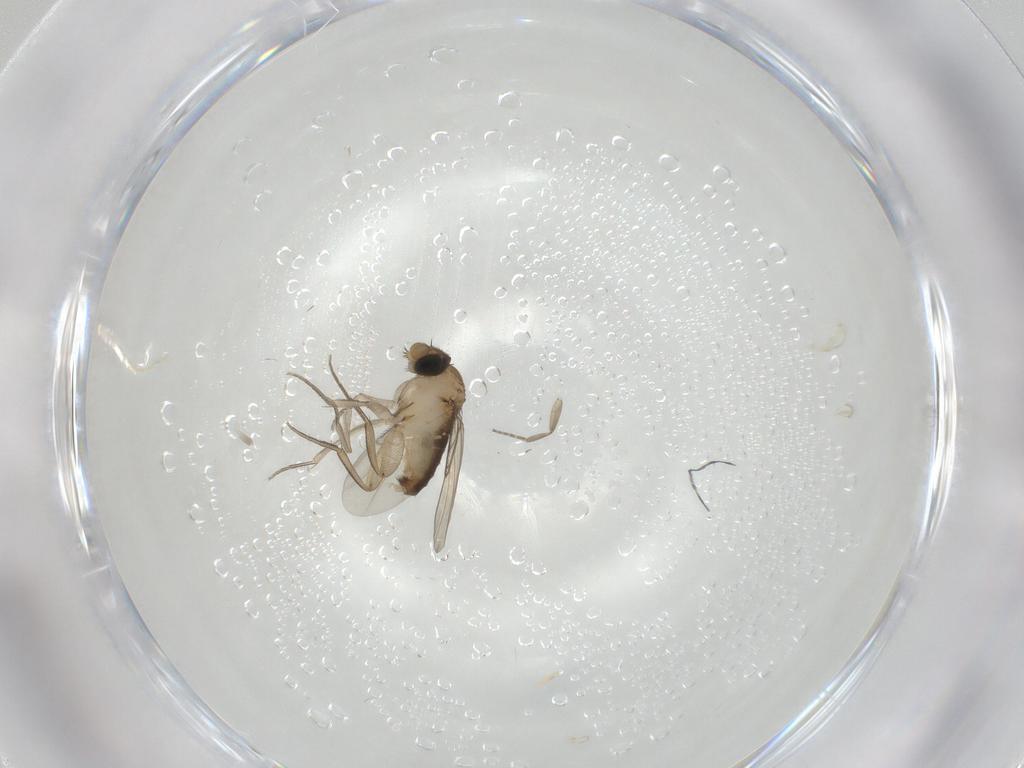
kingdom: Animalia
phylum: Arthropoda
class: Insecta
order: Diptera
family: Phoridae
